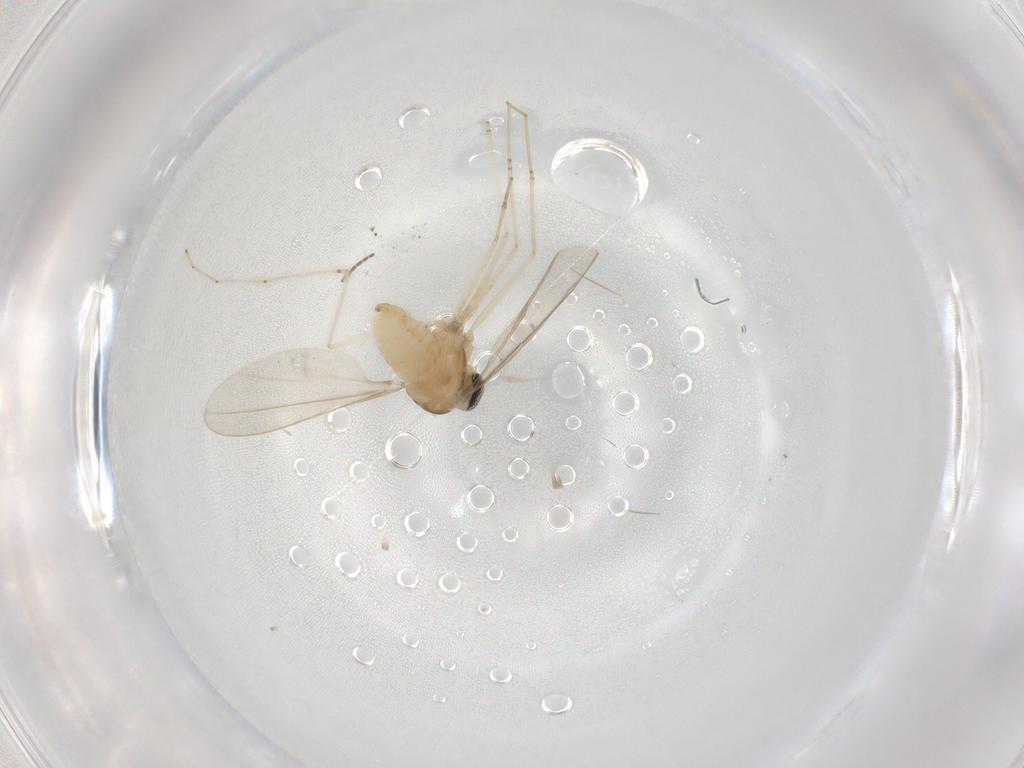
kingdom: Animalia
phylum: Arthropoda
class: Insecta
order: Diptera
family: Cecidomyiidae
